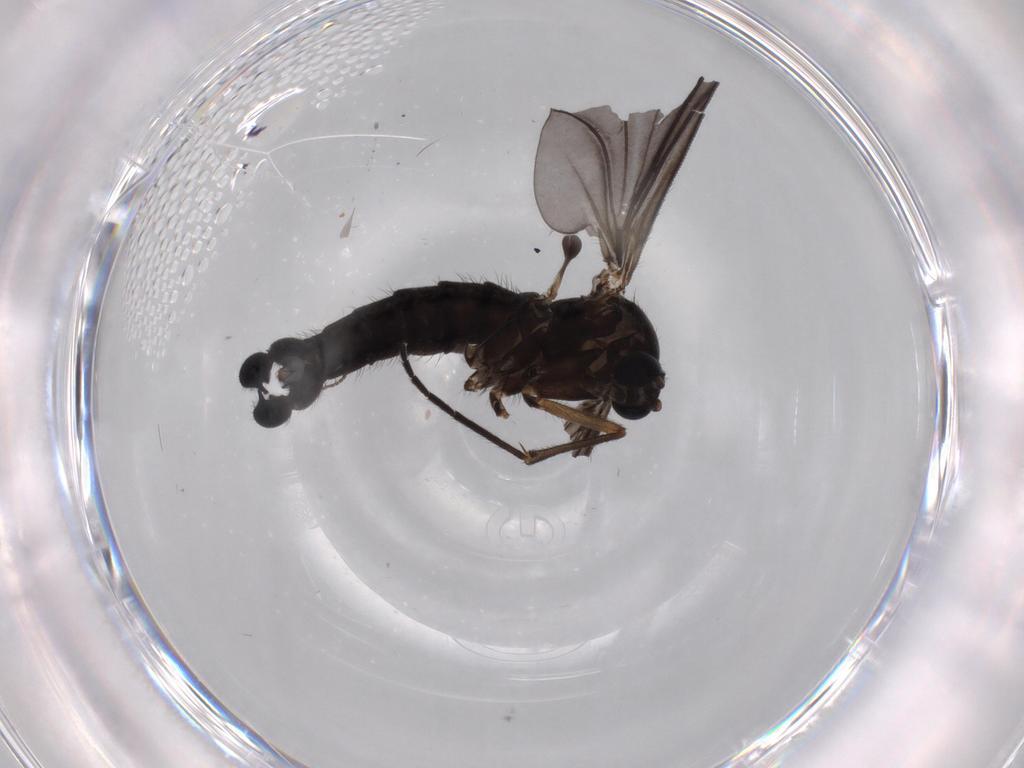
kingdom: Animalia
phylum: Arthropoda
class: Insecta
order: Diptera
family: Sciaridae
